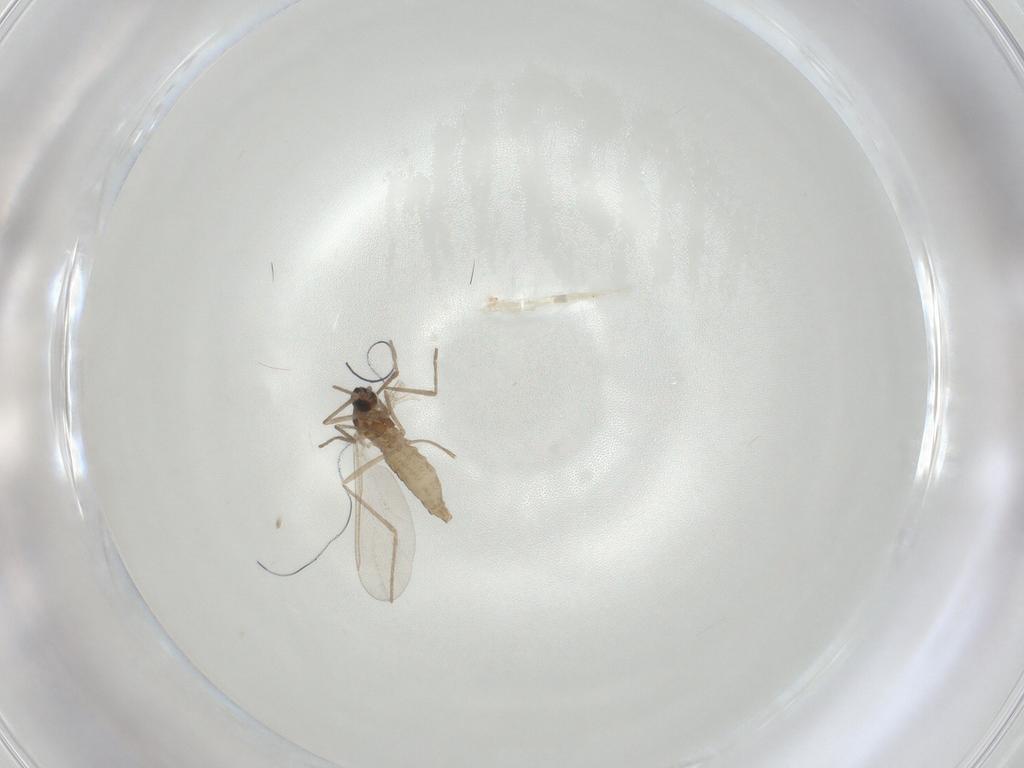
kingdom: Animalia
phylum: Arthropoda
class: Insecta
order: Diptera
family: Cecidomyiidae
